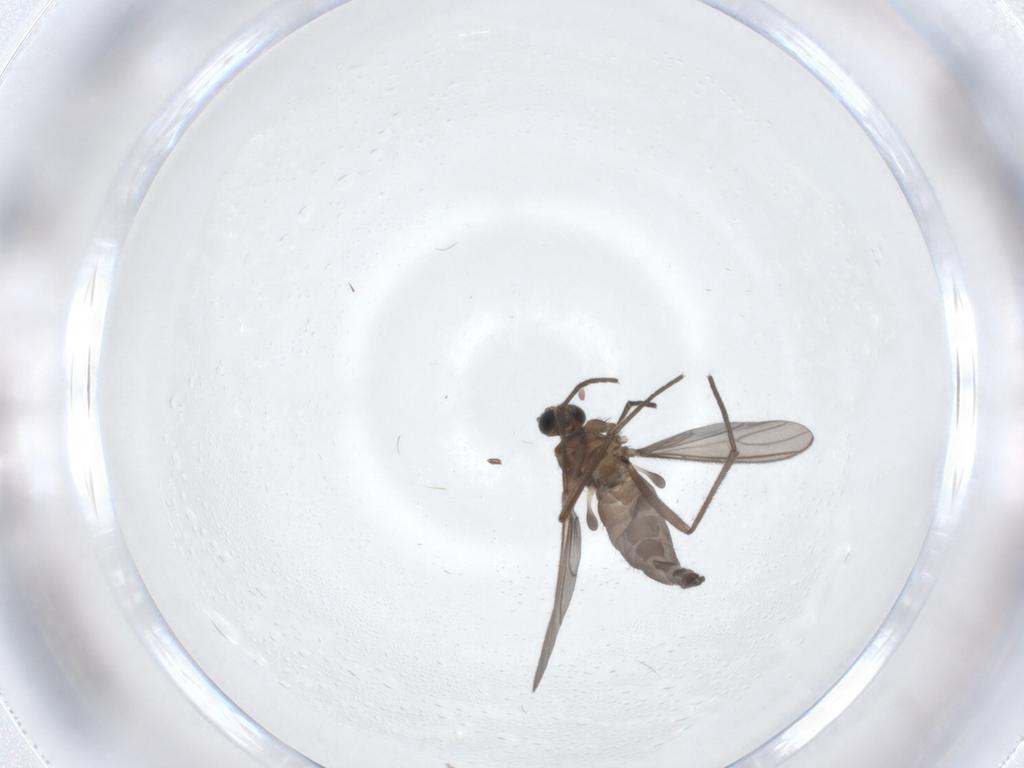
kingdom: Animalia
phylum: Arthropoda
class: Insecta
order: Diptera
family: Sciaridae
